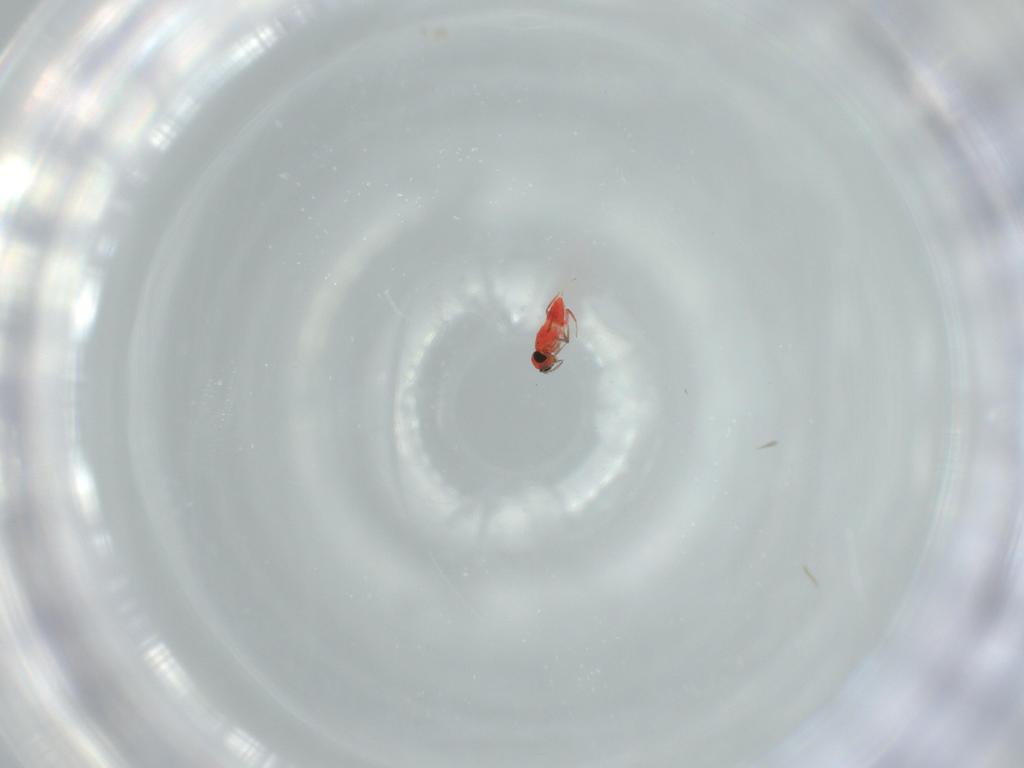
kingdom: Animalia
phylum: Arthropoda
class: Insecta
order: Hymenoptera
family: Trichogrammatidae
